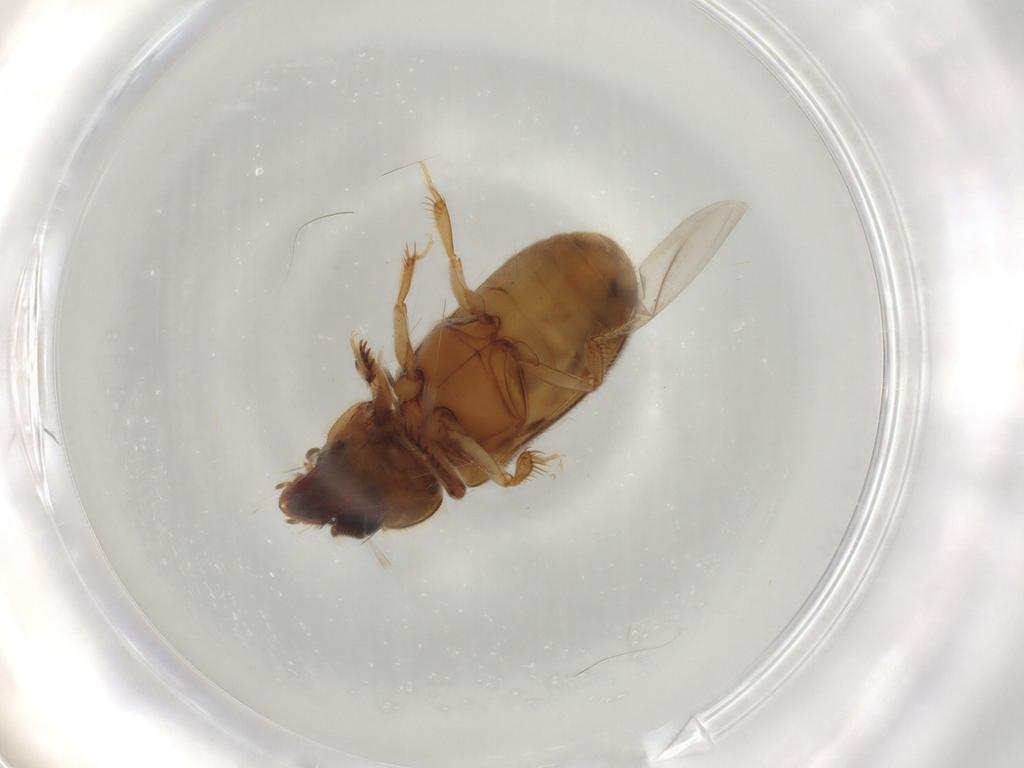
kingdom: Animalia
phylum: Arthropoda
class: Insecta
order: Coleoptera
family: Heteroceridae
